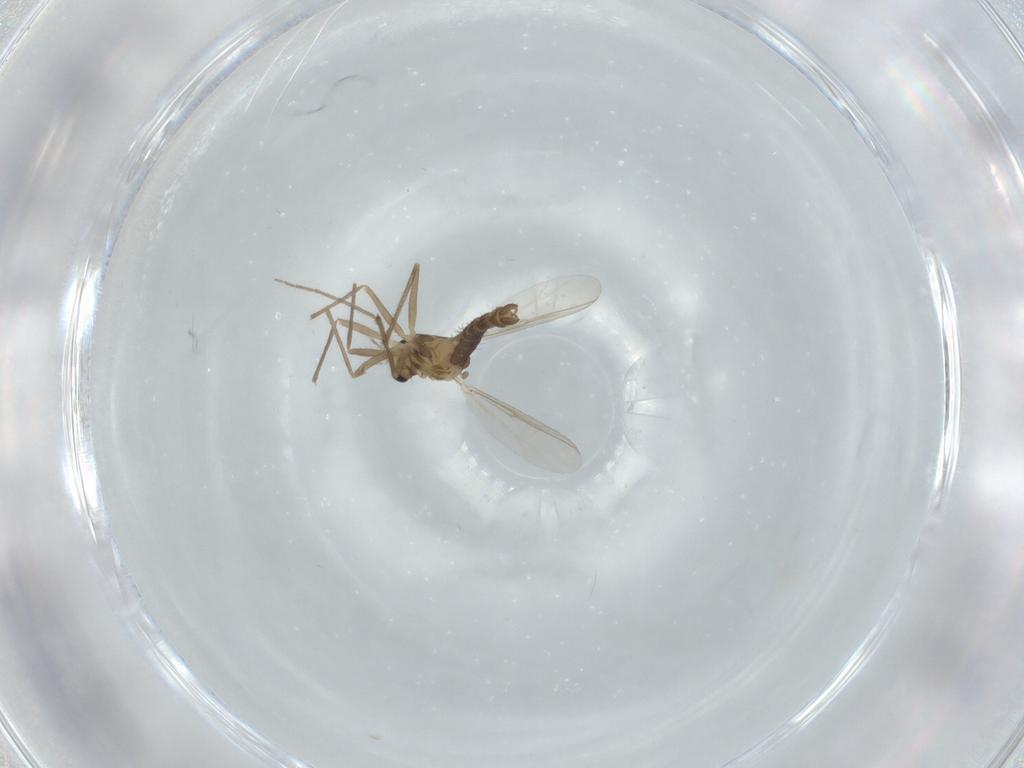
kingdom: Animalia
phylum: Arthropoda
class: Insecta
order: Diptera
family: Chironomidae
